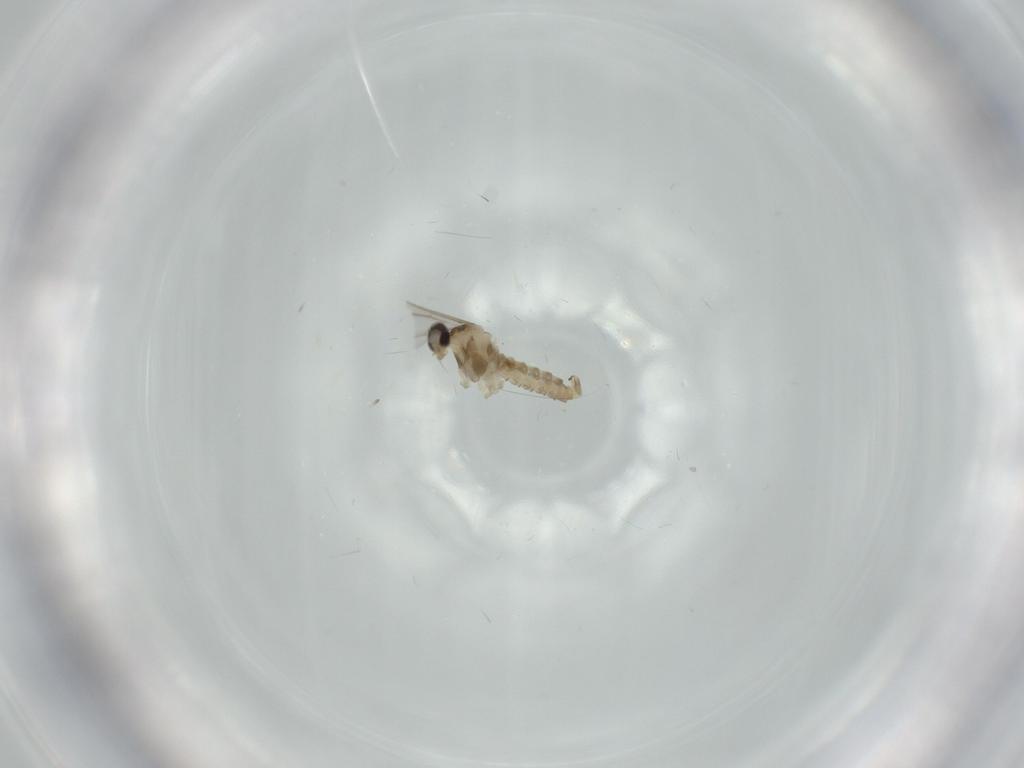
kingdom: Animalia
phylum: Arthropoda
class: Insecta
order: Diptera
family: Cecidomyiidae
